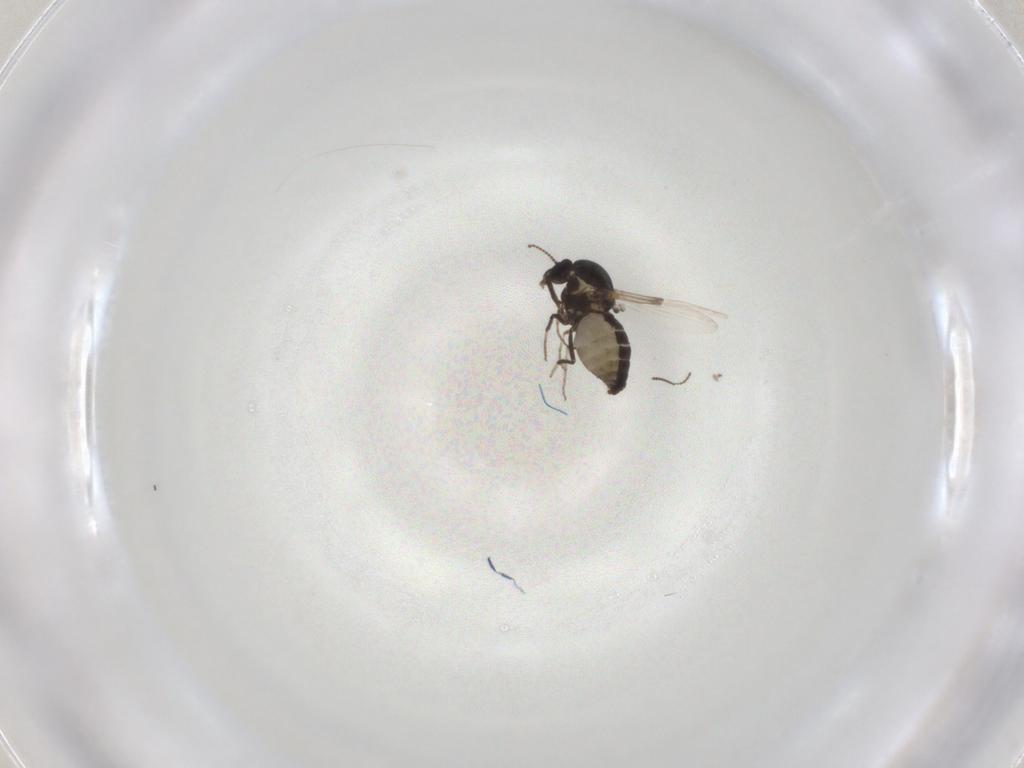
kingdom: Animalia
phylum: Arthropoda
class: Insecta
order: Diptera
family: Ceratopogonidae
